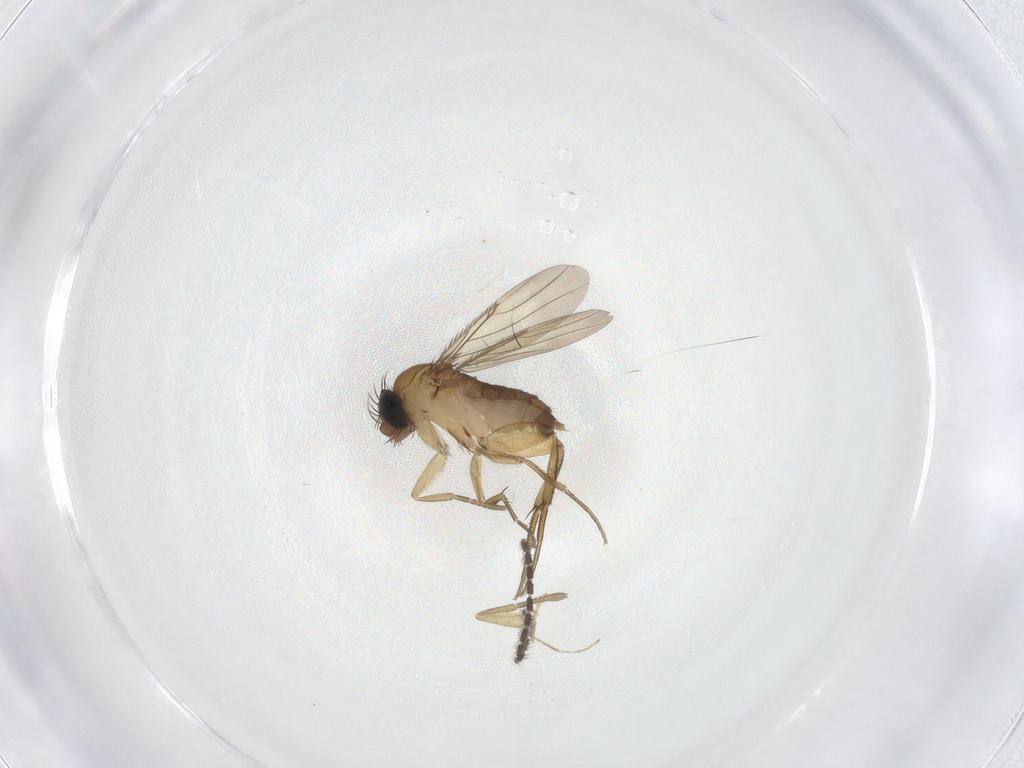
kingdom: Animalia
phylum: Arthropoda
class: Insecta
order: Diptera
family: Phoridae
